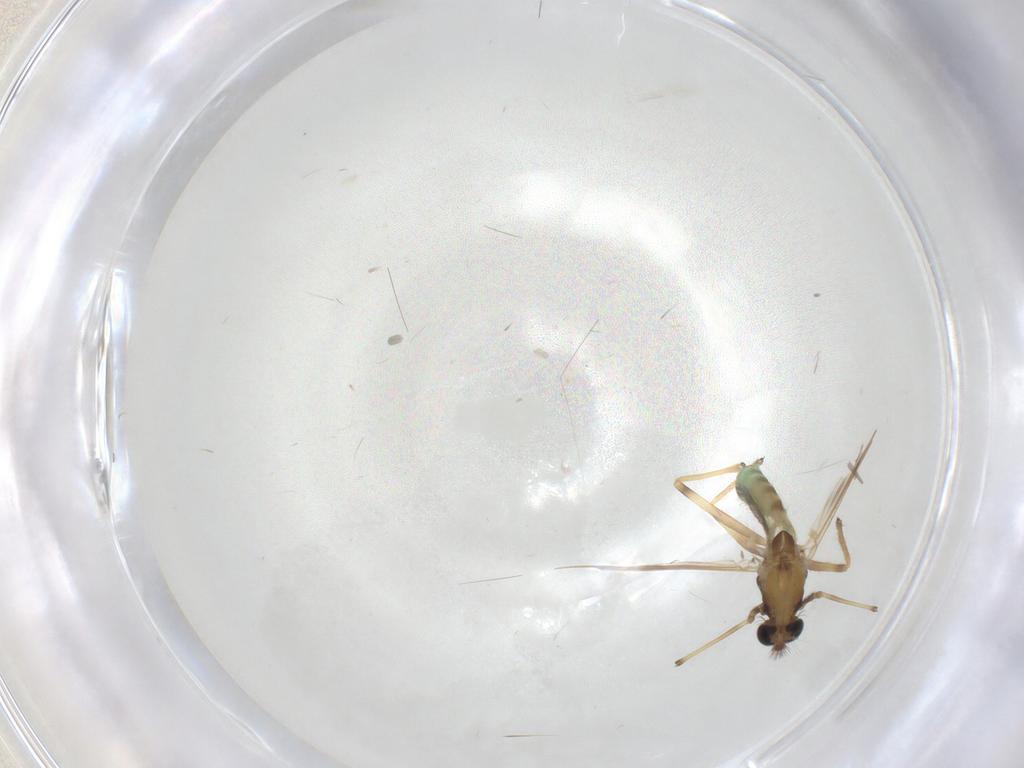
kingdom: Animalia
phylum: Arthropoda
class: Insecta
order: Diptera
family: Chironomidae
